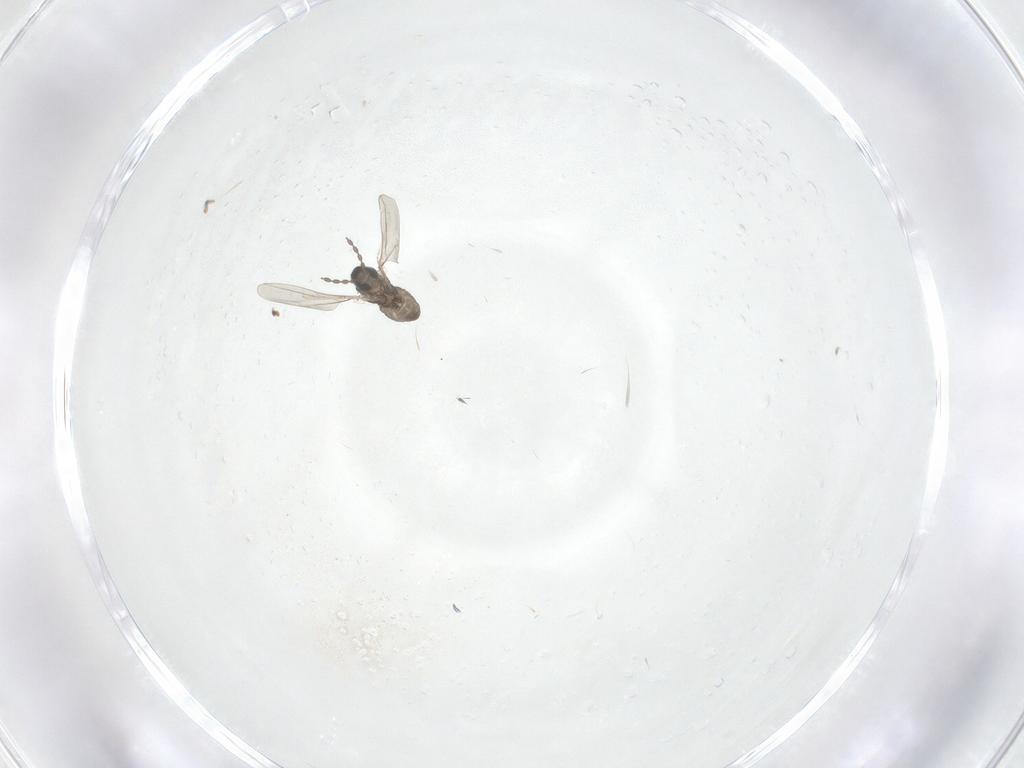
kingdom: Animalia
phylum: Arthropoda
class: Insecta
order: Diptera
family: Cecidomyiidae
